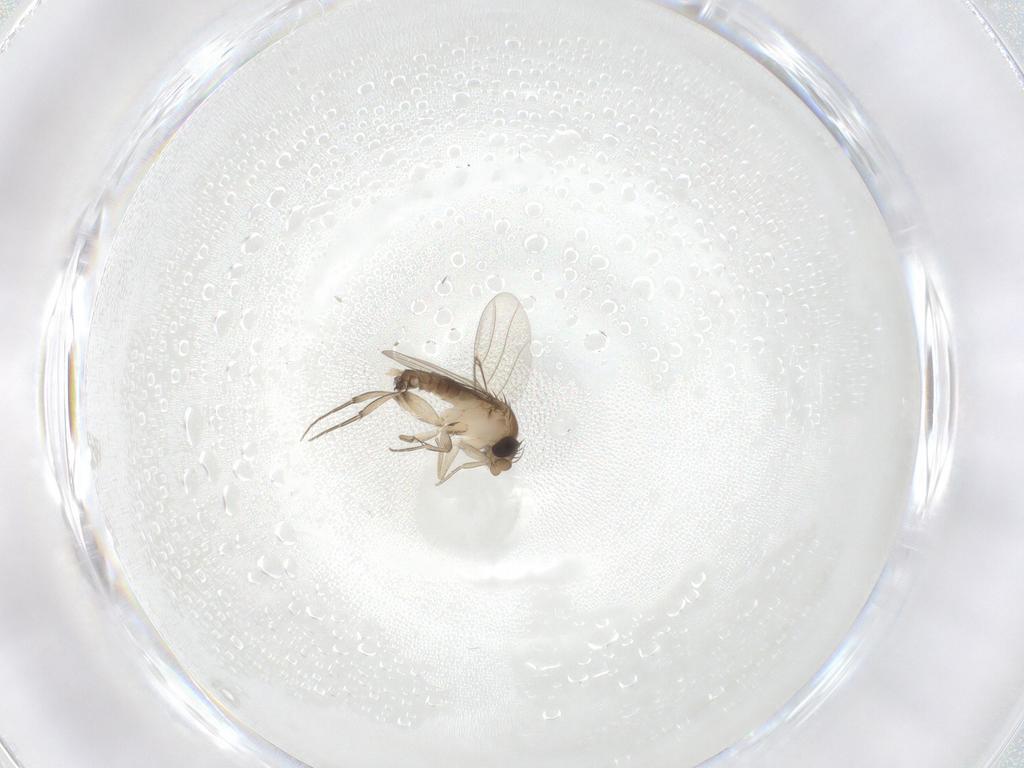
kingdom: Animalia
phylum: Arthropoda
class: Insecta
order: Diptera
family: Phoridae
